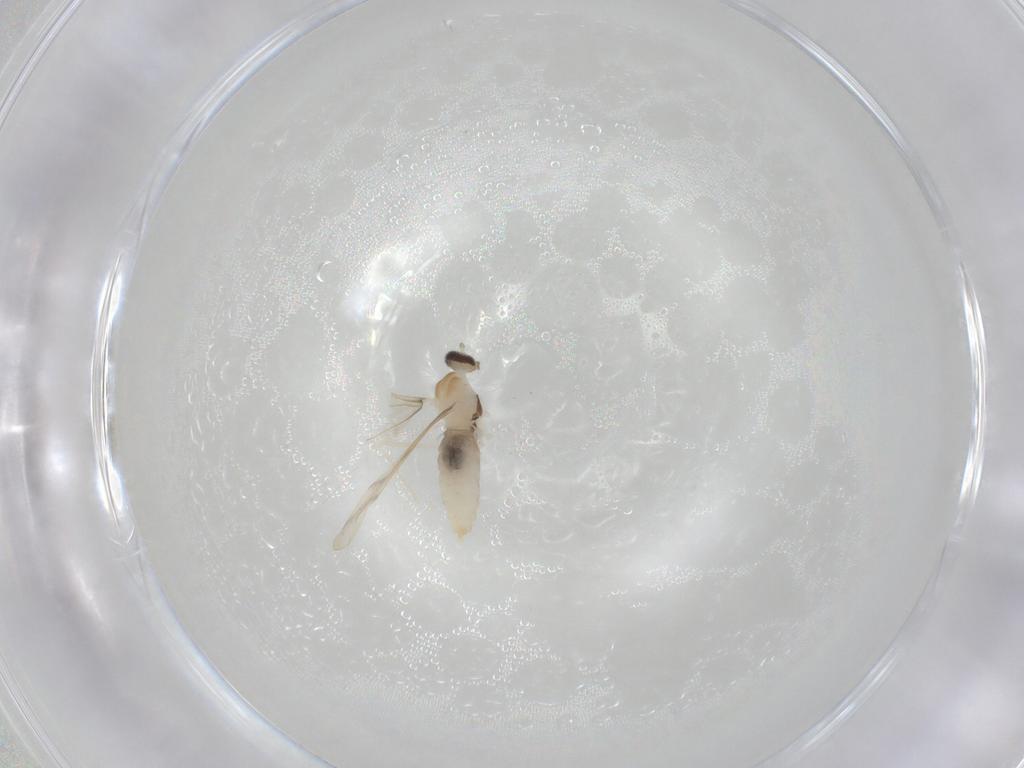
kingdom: Animalia
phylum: Arthropoda
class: Insecta
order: Diptera
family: Cecidomyiidae
